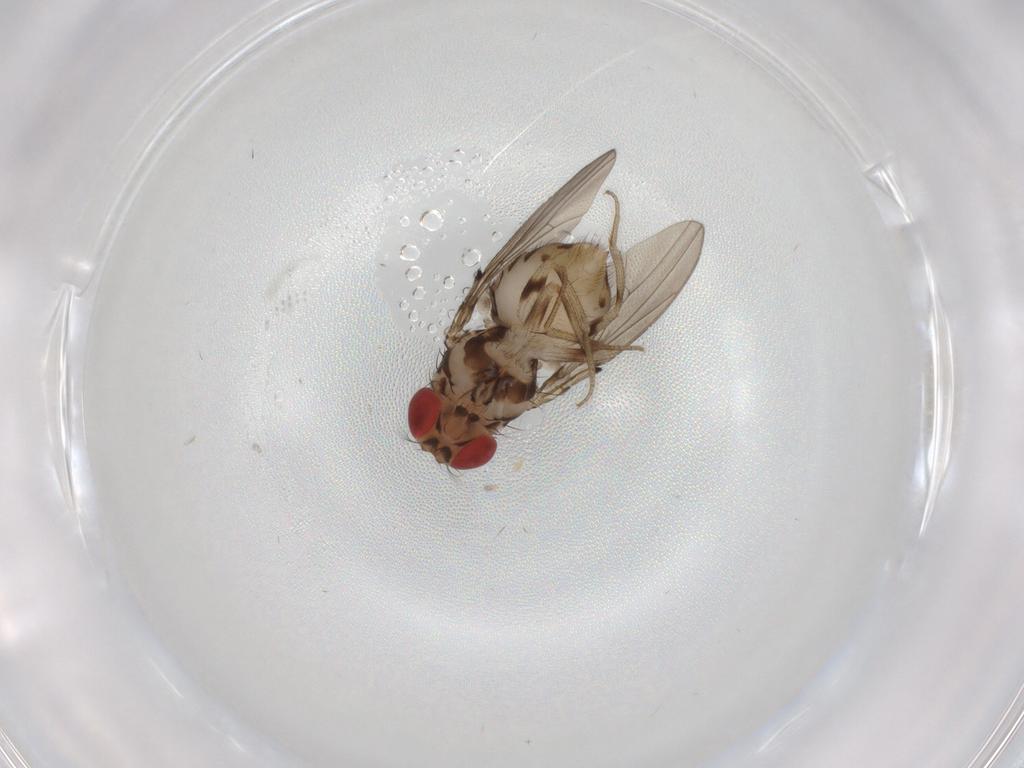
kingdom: Animalia
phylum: Arthropoda
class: Insecta
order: Diptera
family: Drosophilidae
